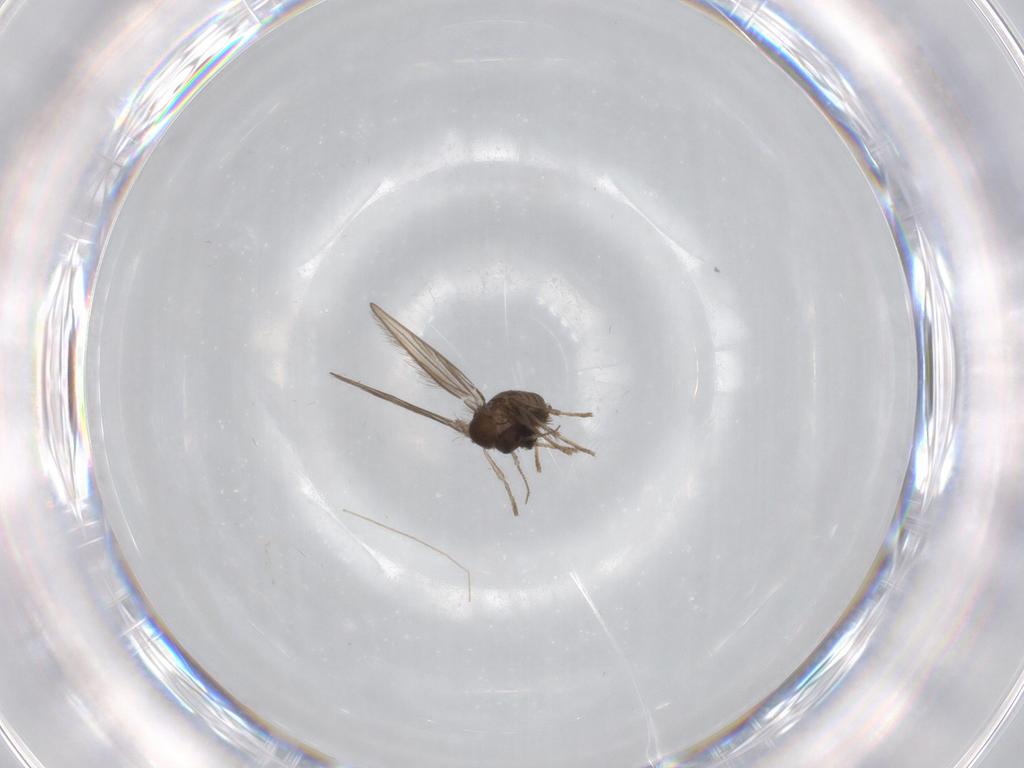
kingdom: Animalia
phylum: Arthropoda
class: Insecta
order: Diptera
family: Psychodidae
